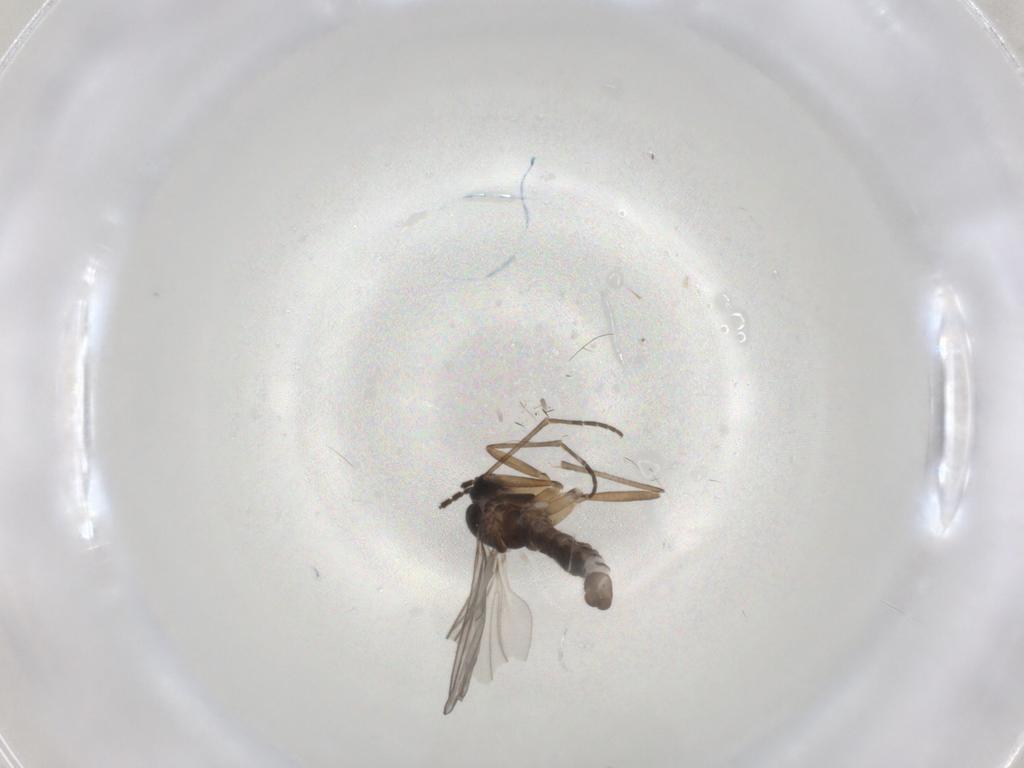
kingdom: Animalia
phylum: Arthropoda
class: Insecta
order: Diptera
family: Sciaridae
